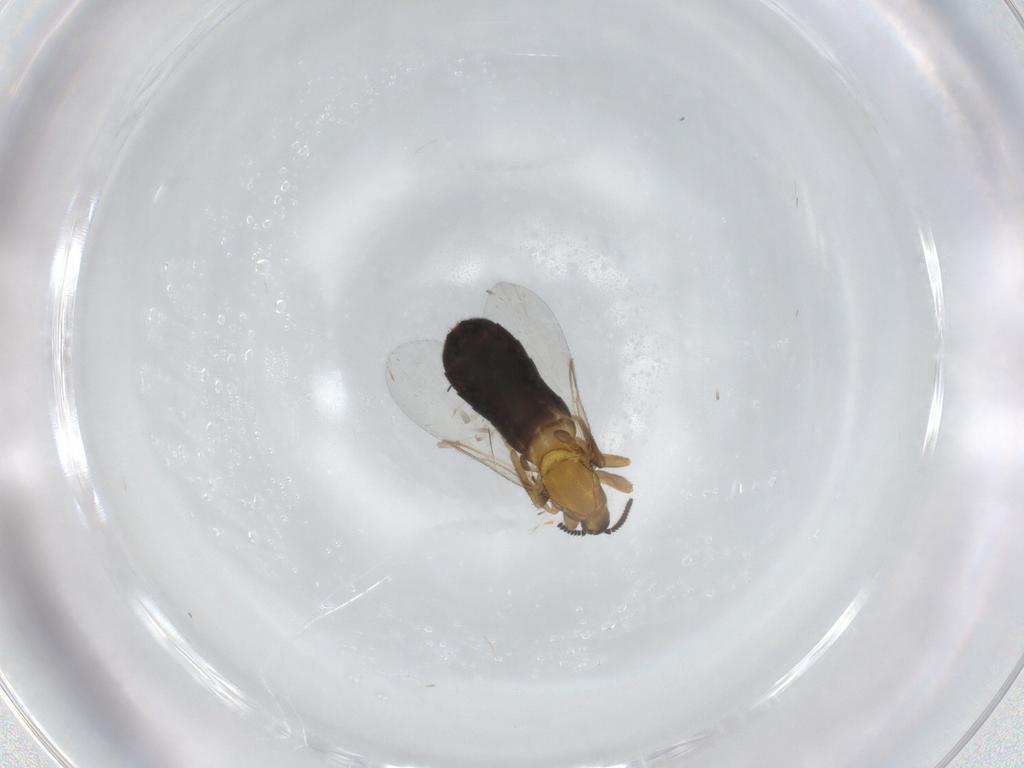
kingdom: Animalia
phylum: Arthropoda
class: Insecta
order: Diptera
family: Scatopsidae
